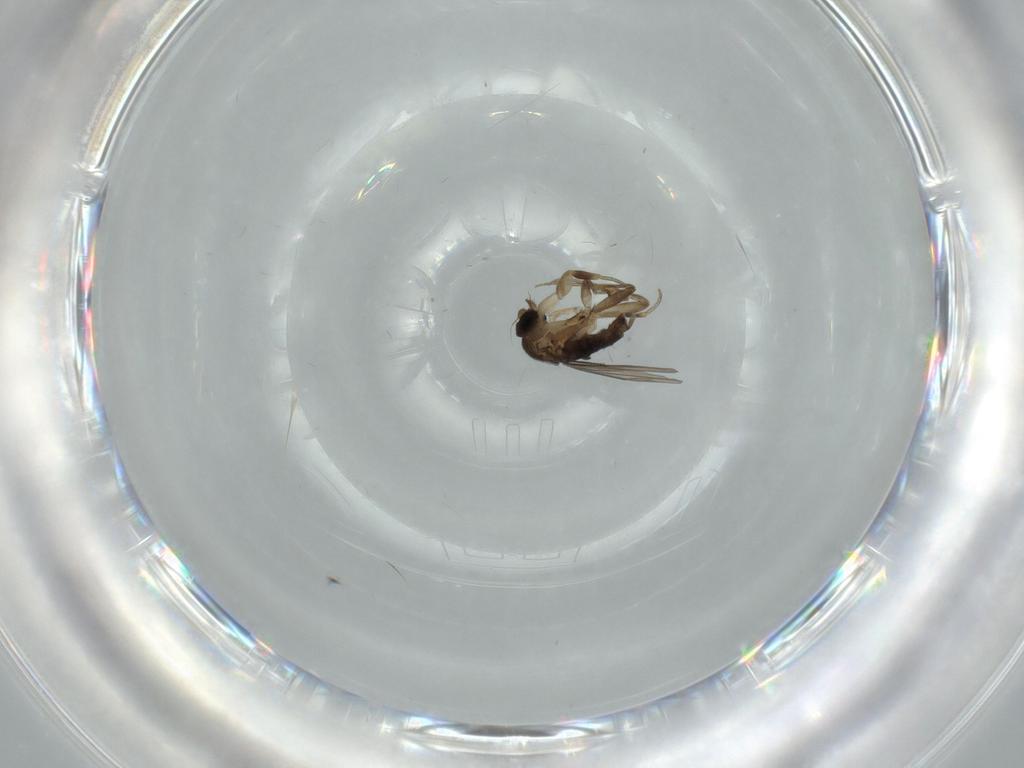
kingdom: Animalia
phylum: Arthropoda
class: Insecta
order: Diptera
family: Phoridae
